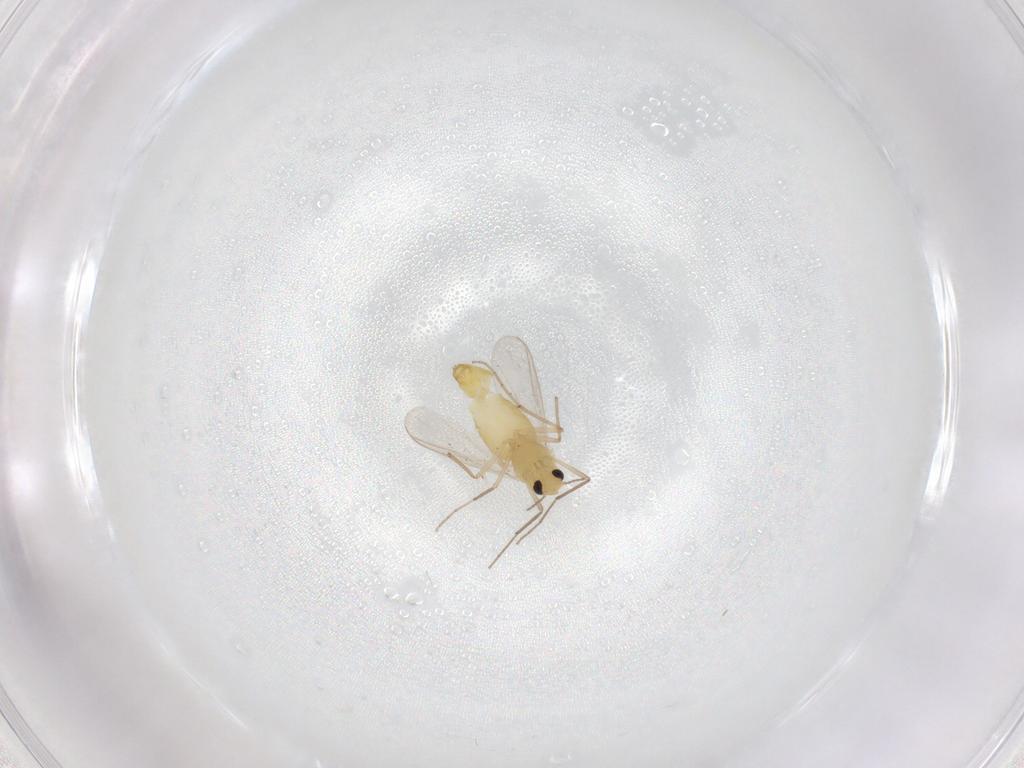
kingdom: Animalia
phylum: Arthropoda
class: Insecta
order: Diptera
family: Chironomidae
